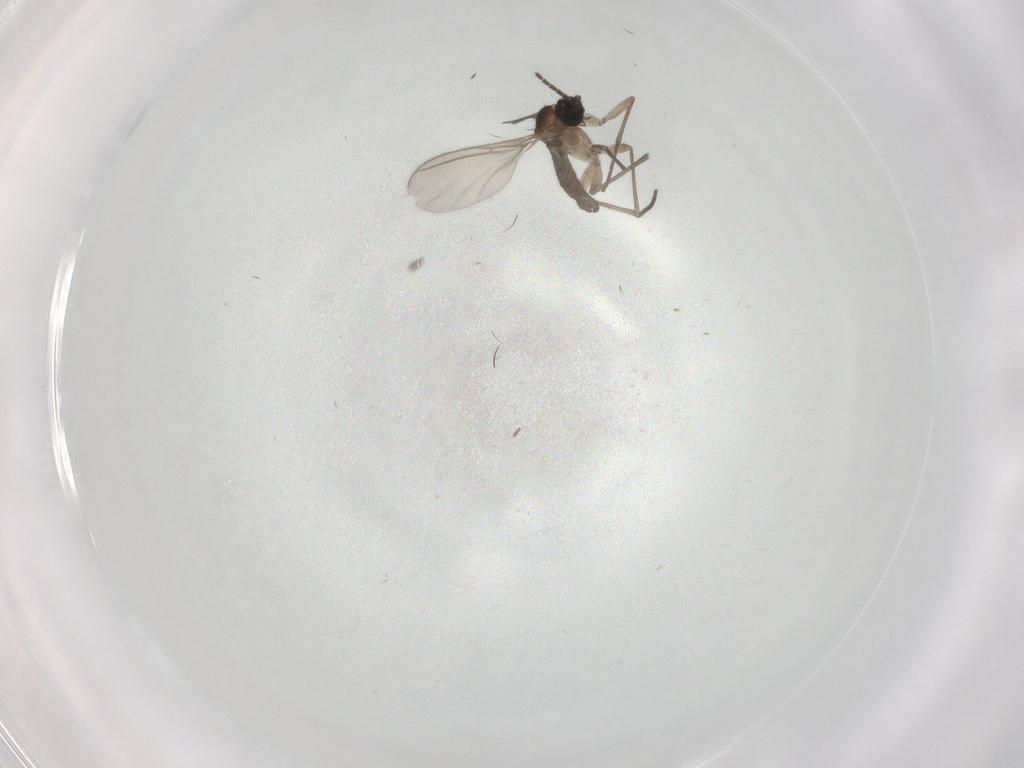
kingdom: Animalia
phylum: Arthropoda
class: Insecta
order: Diptera
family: Sciaridae
